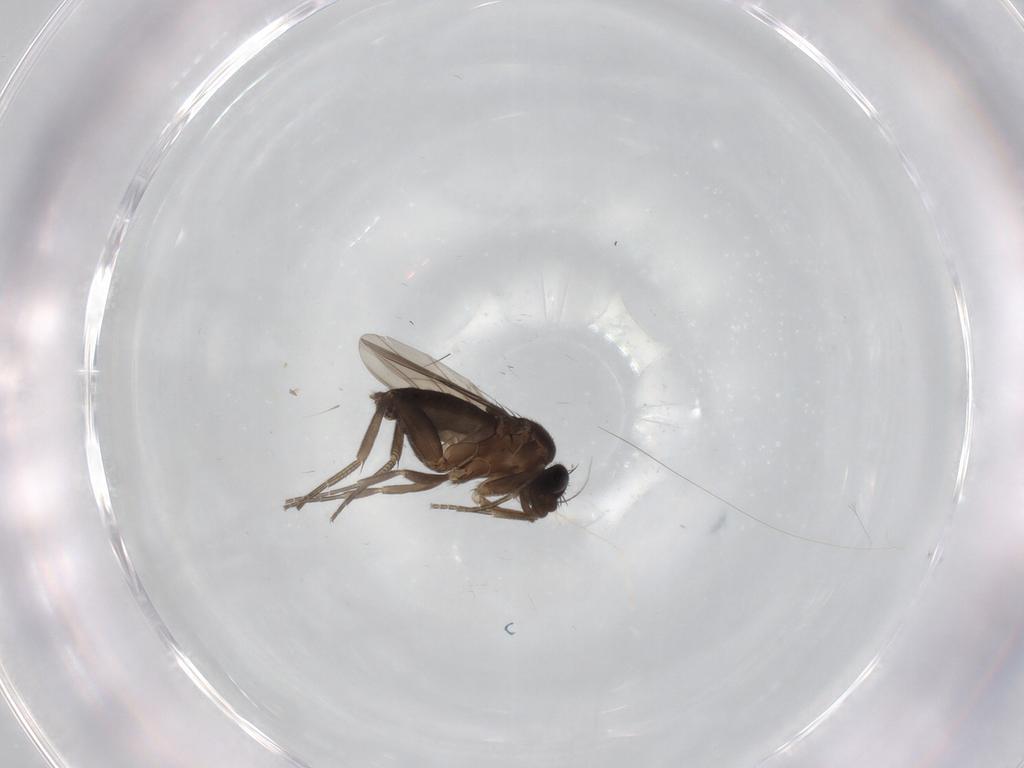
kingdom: Animalia
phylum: Arthropoda
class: Insecta
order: Diptera
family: Phoridae
